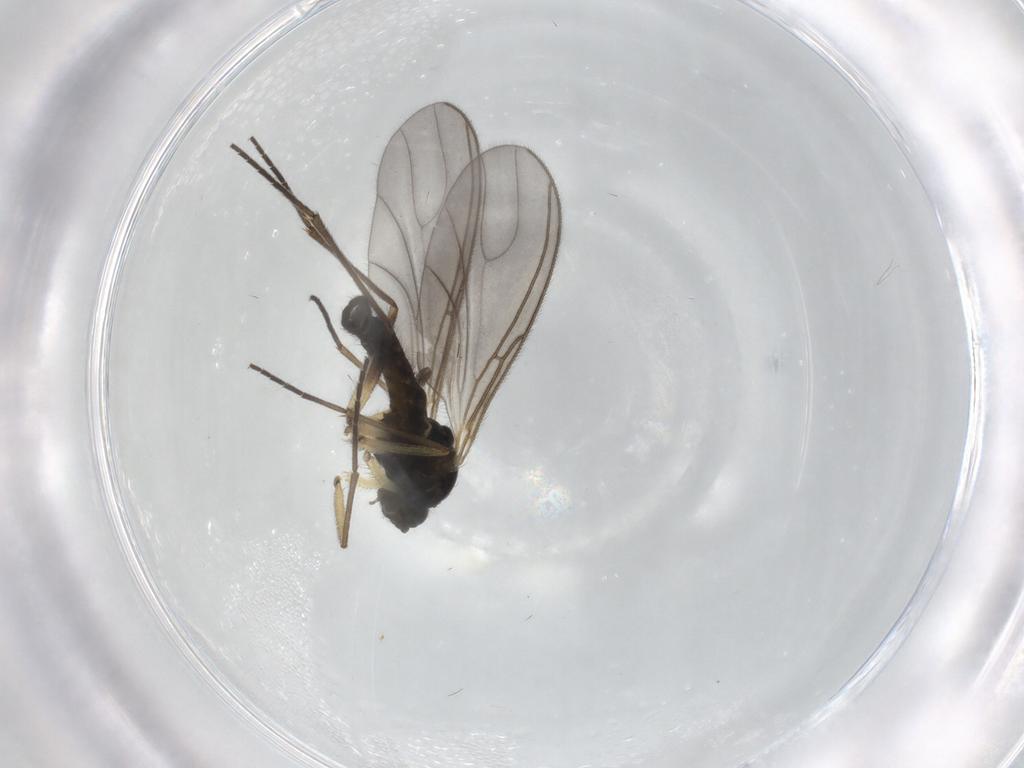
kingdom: Animalia
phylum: Arthropoda
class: Insecta
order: Diptera
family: Sciaridae
